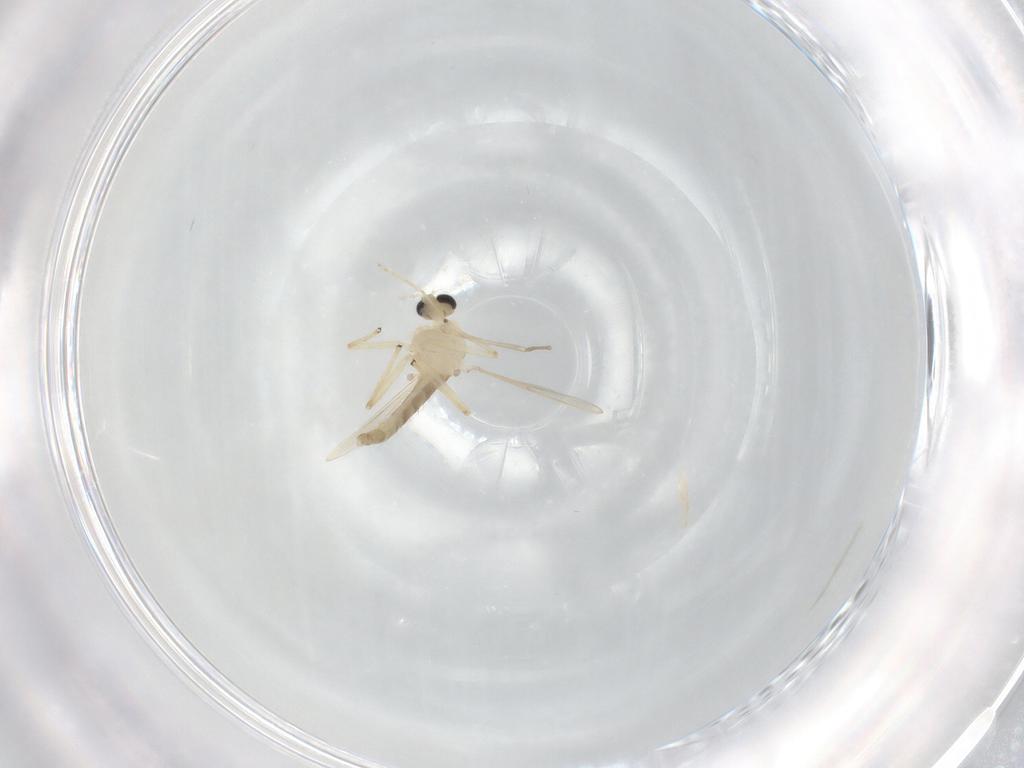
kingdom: Animalia
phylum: Arthropoda
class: Insecta
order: Diptera
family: Chironomidae
